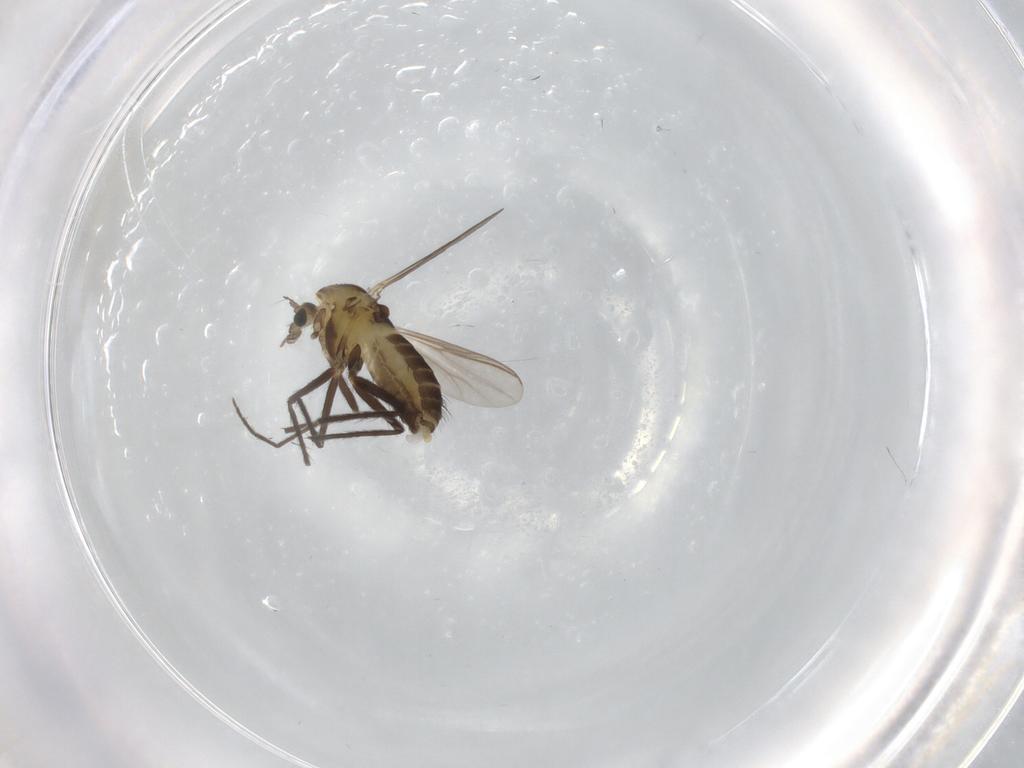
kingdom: Animalia
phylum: Arthropoda
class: Insecta
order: Diptera
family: Chironomidae
